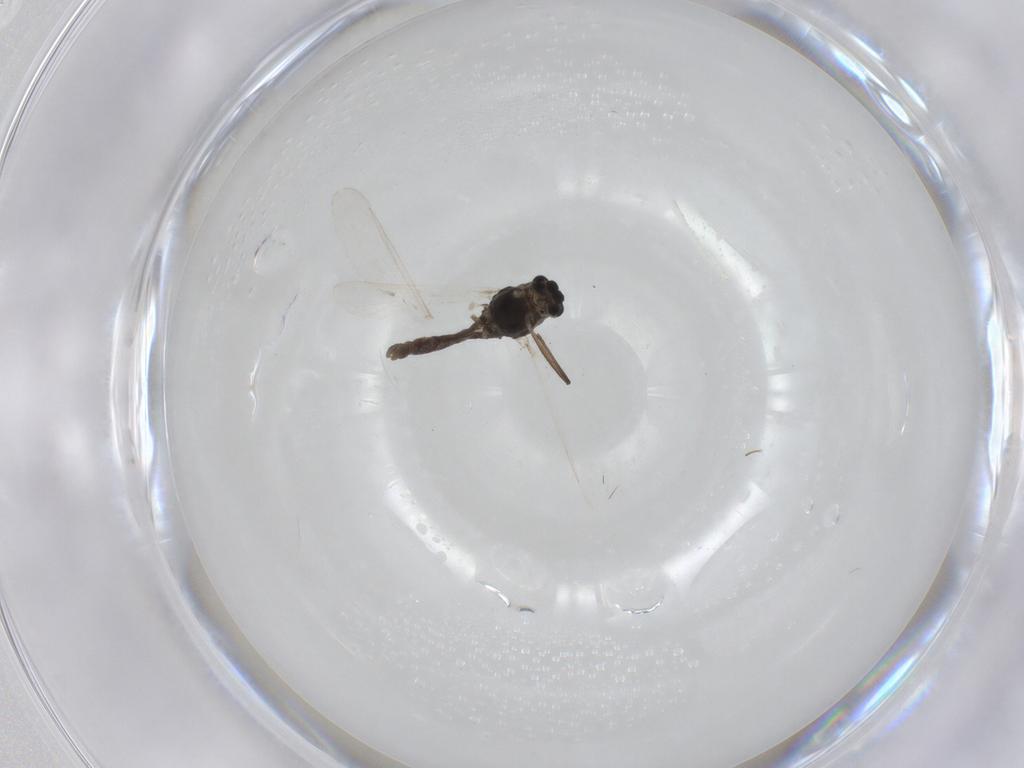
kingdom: Animalia
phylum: Arthropoda
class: Insecta
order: Diptera
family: Chironomidae
